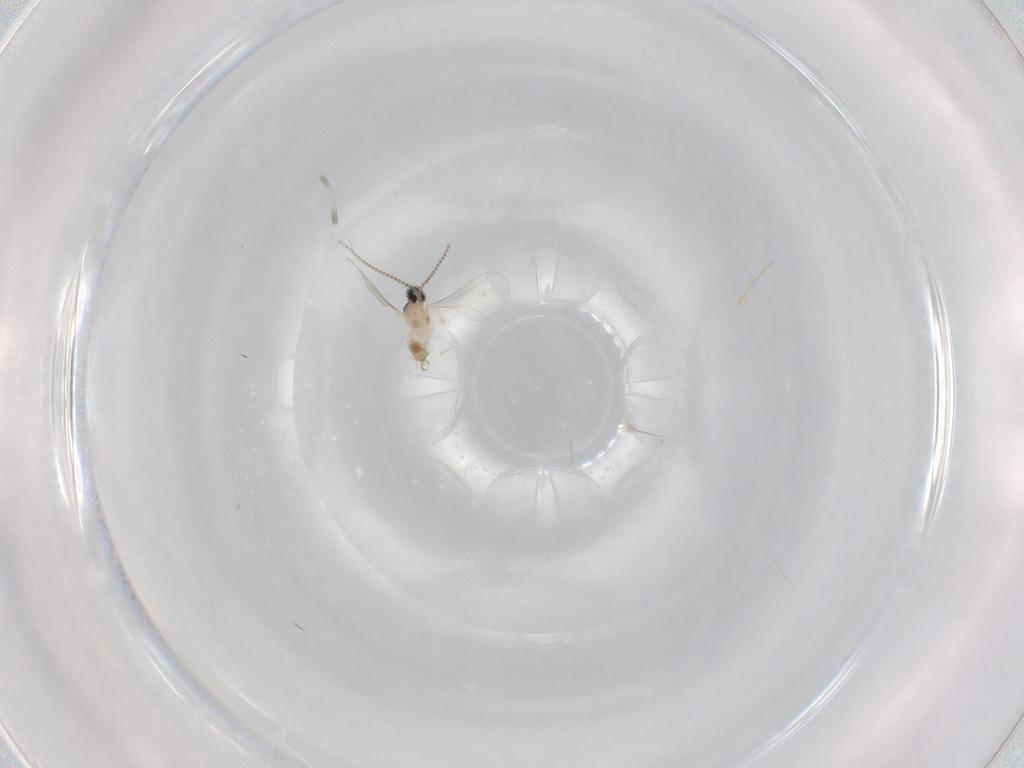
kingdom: Animalia
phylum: Arthropoda
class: Insecta
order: Diptera
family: Cecidomyiidae
